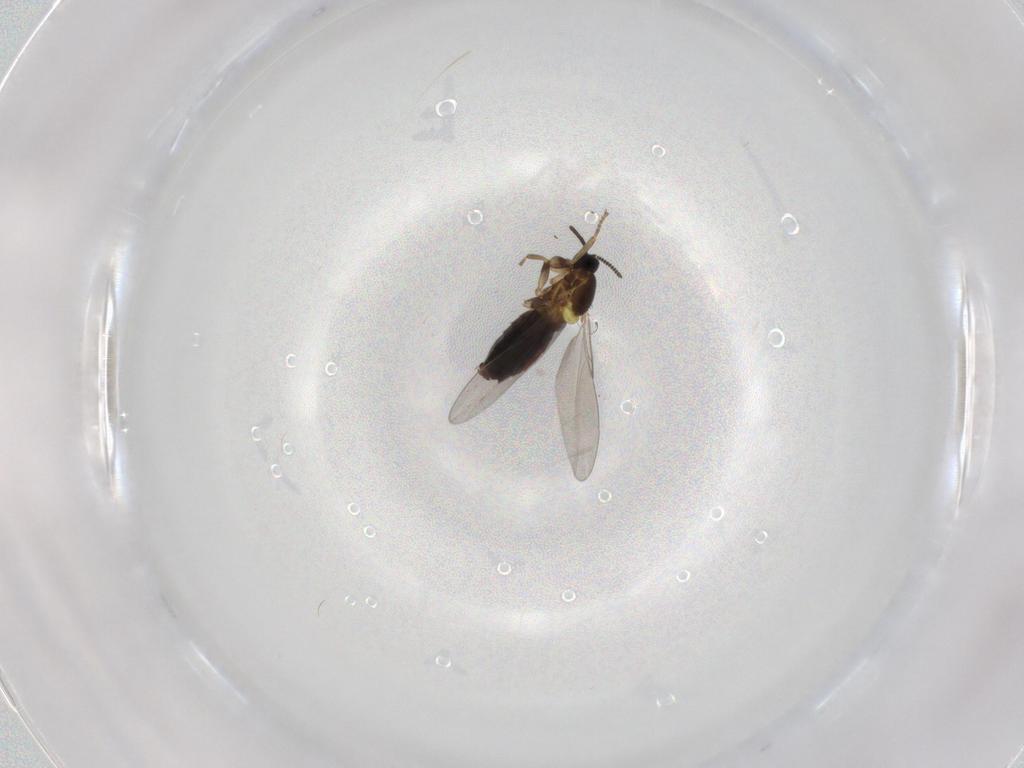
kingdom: Animalia
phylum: Arthropoda
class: Insecta
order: Diptera
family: Scatopsidae
